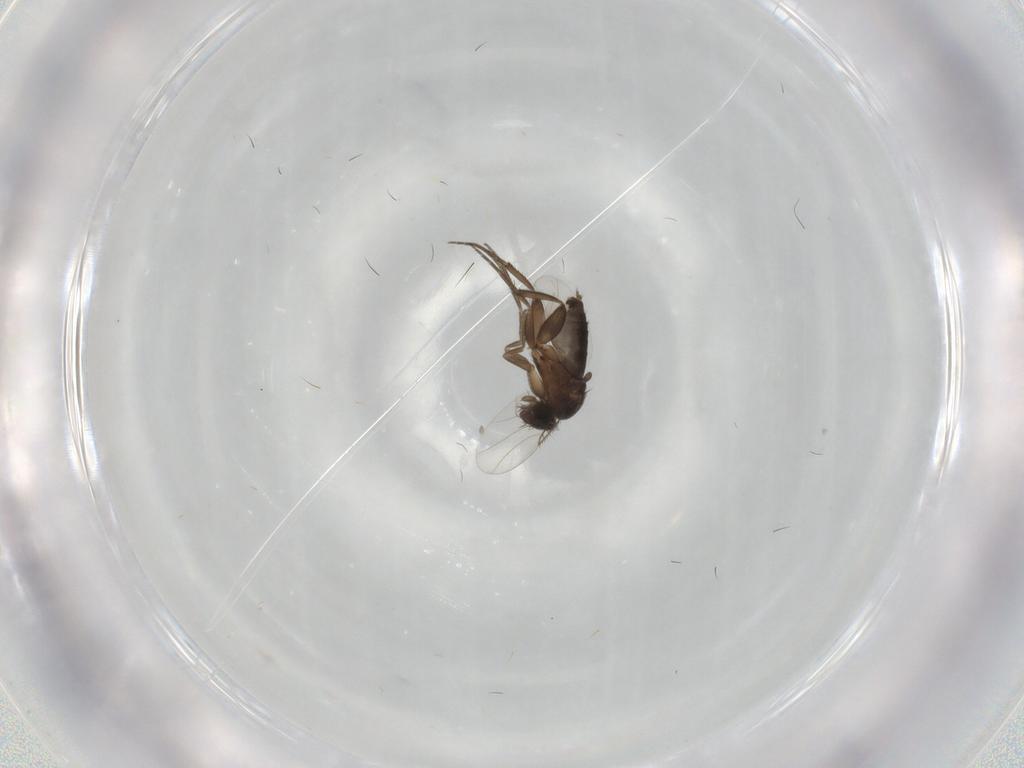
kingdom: Animalia
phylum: Arthropoda
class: Insecta
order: Diptera
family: Phoridae
